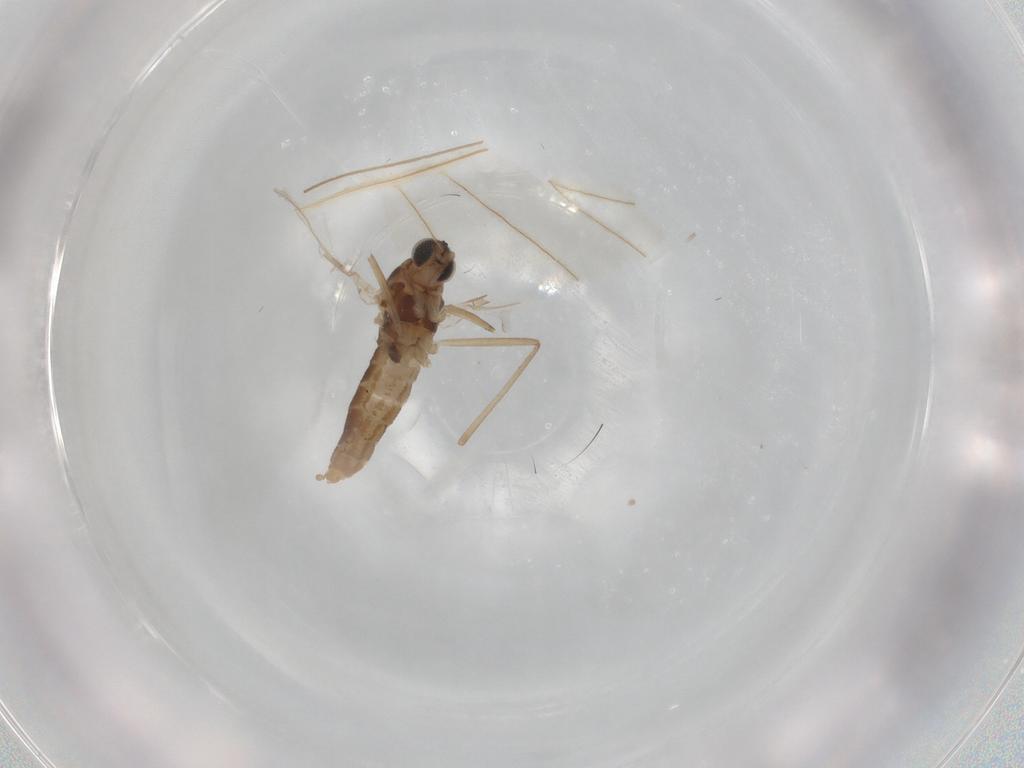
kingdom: Animalia
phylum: Arthropoda
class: Insecta
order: Diptera
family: Cecidomyiidae
